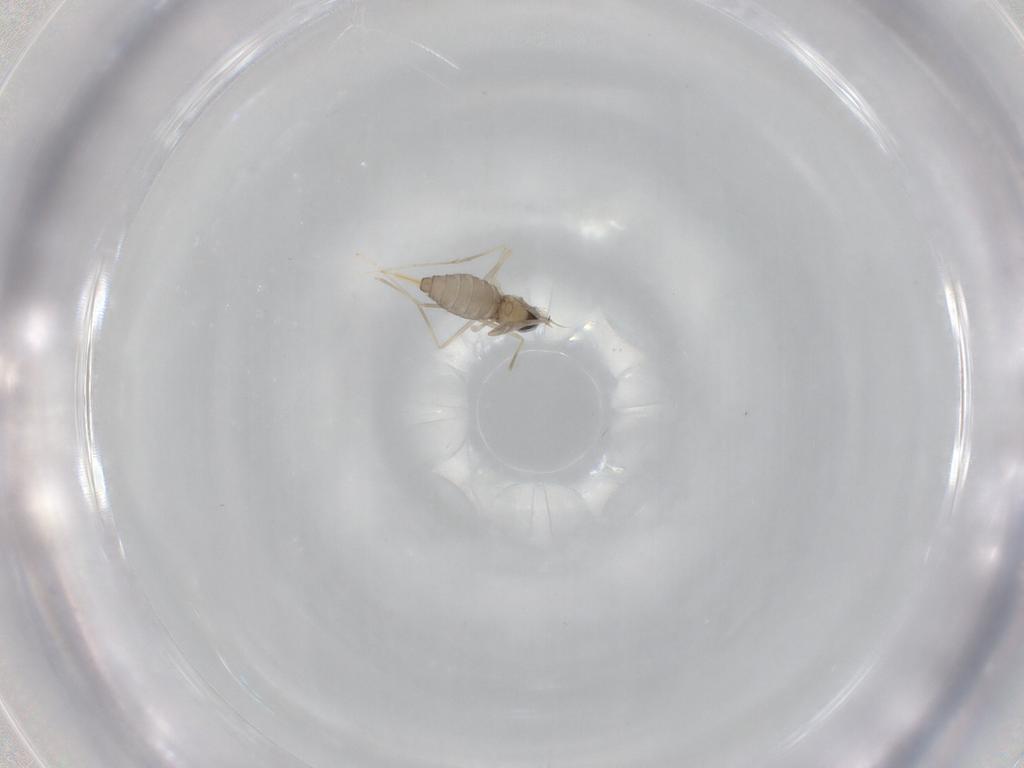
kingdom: Animalia
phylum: Arthropoda
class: Insecta
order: Diptera
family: Cecidomyiidae
